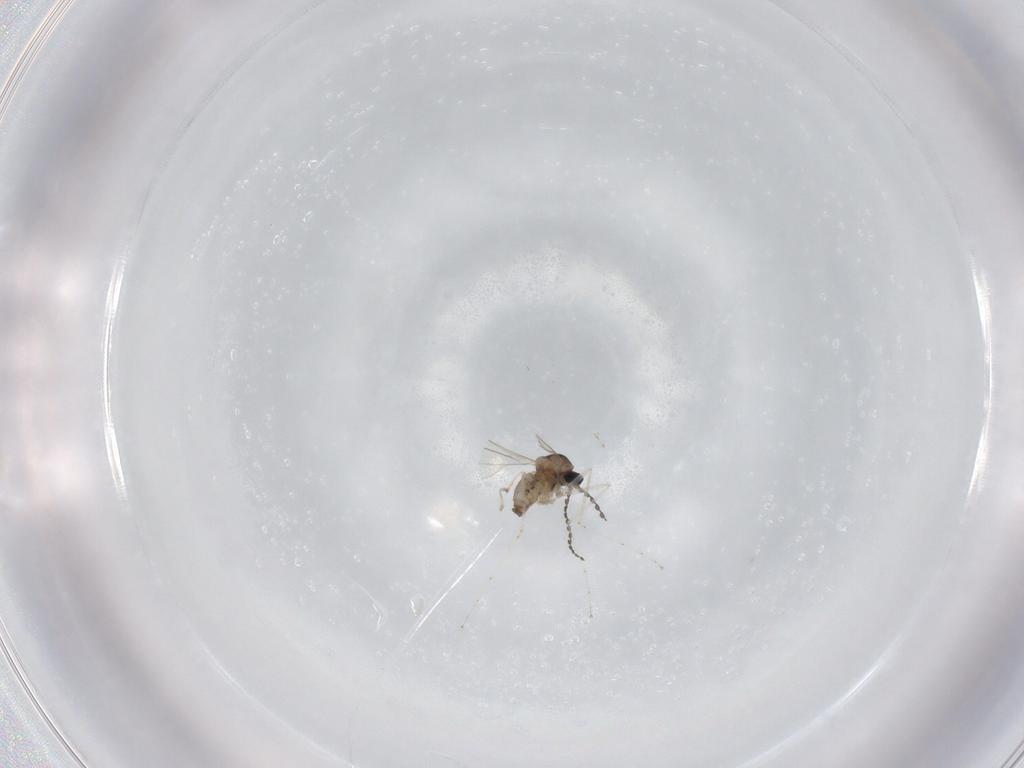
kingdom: Animalia
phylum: Arthropoda
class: Insecta
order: Diptera
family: Cecidomyiidae
